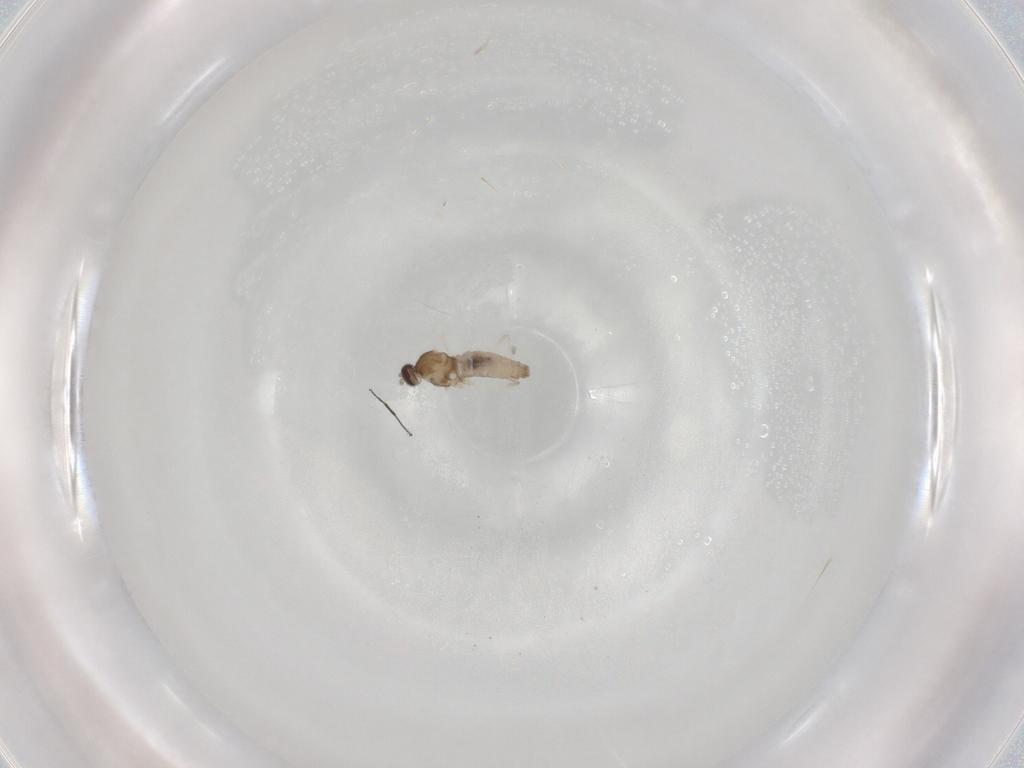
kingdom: Animalia
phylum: Arthropoda
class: Insecta
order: Diptera
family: Cecidomyiidae
